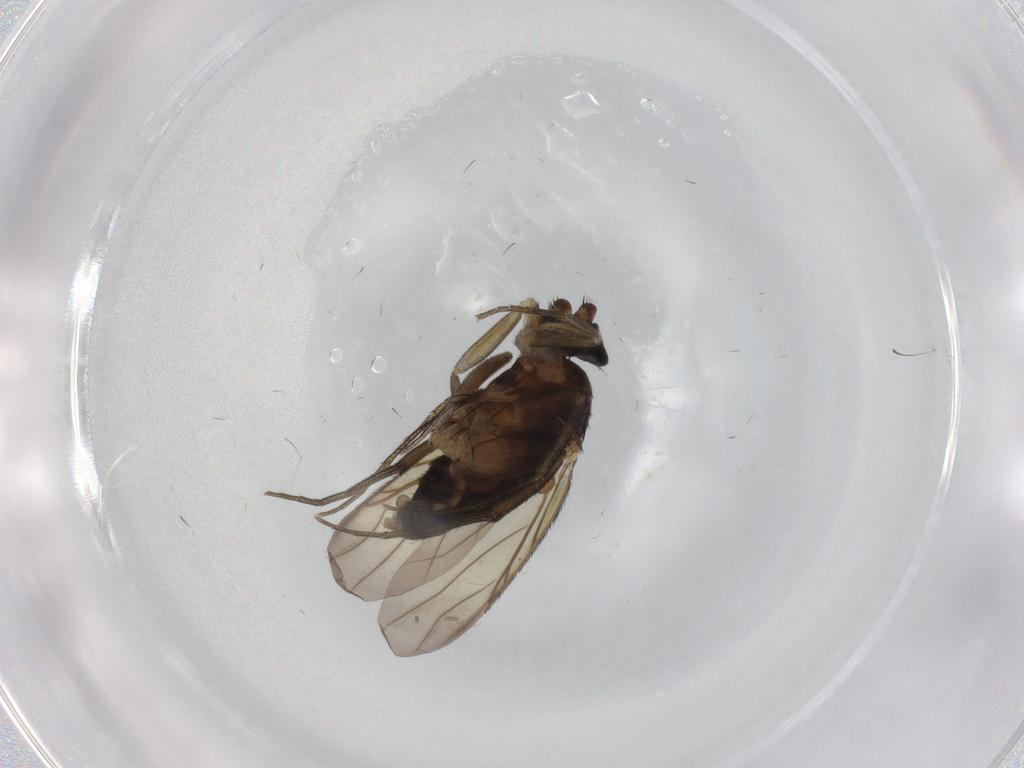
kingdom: Animalia
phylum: Arthropoda
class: Insecta
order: Diptera
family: Phoridae
